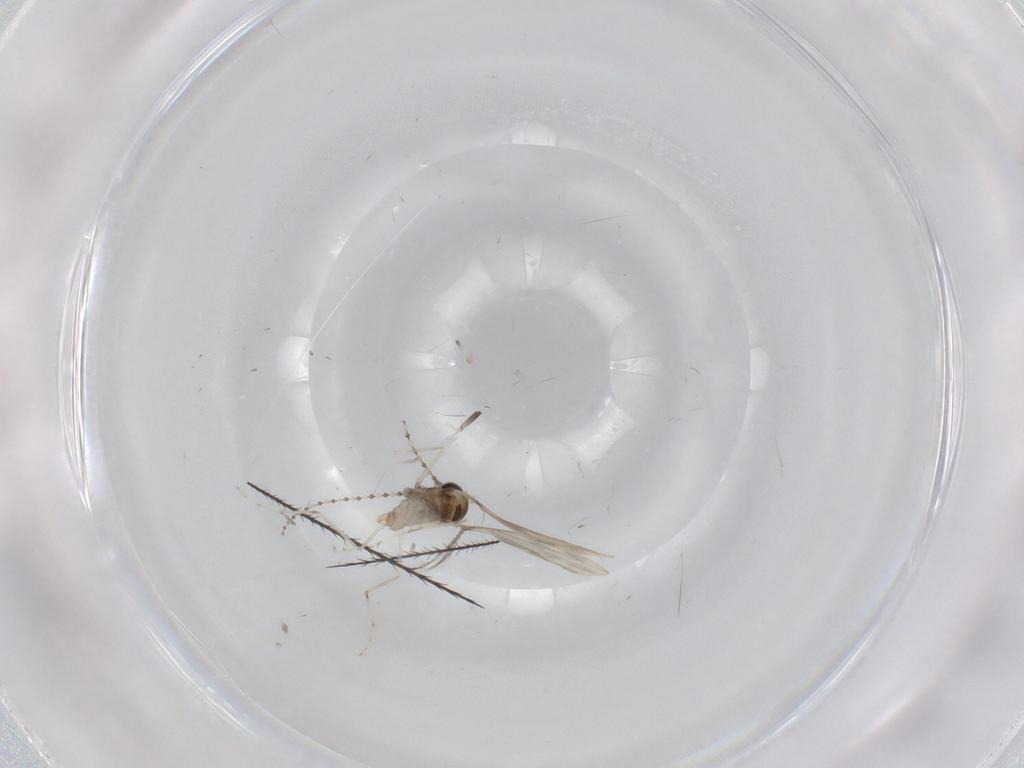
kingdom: Animalia
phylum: Arthropoda
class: Insecta
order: Diptera
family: Ceratopogonidae
